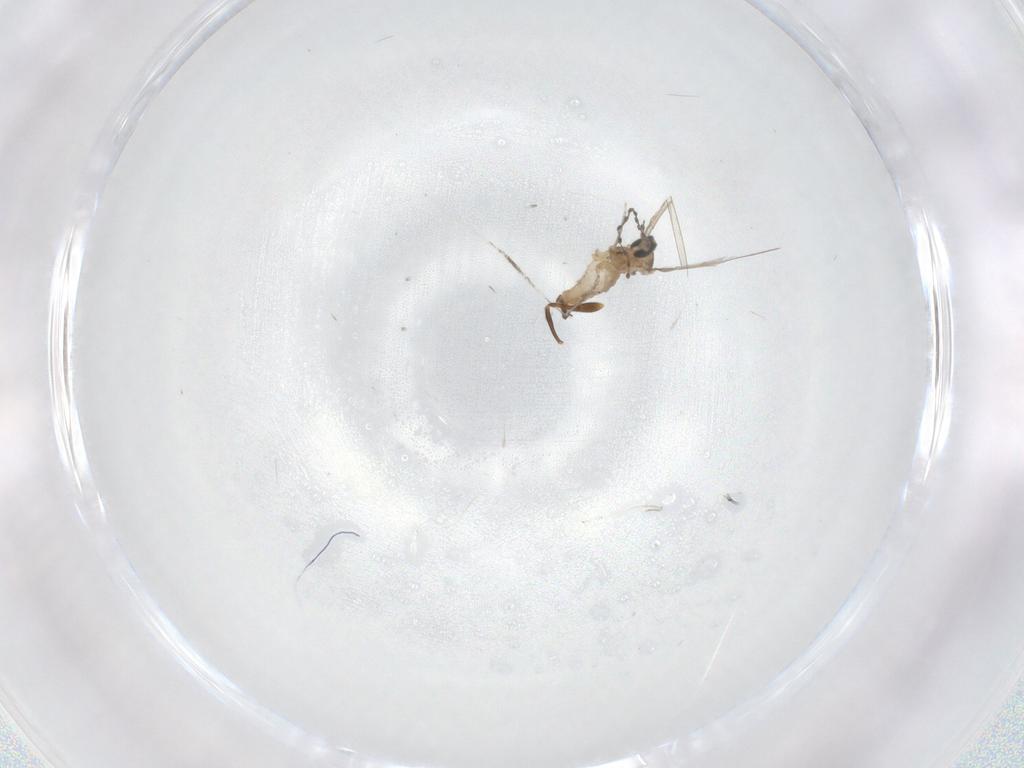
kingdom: Animalia
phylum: Arthropoda
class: Insecta
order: Diptera
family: Cecidomyiidae
